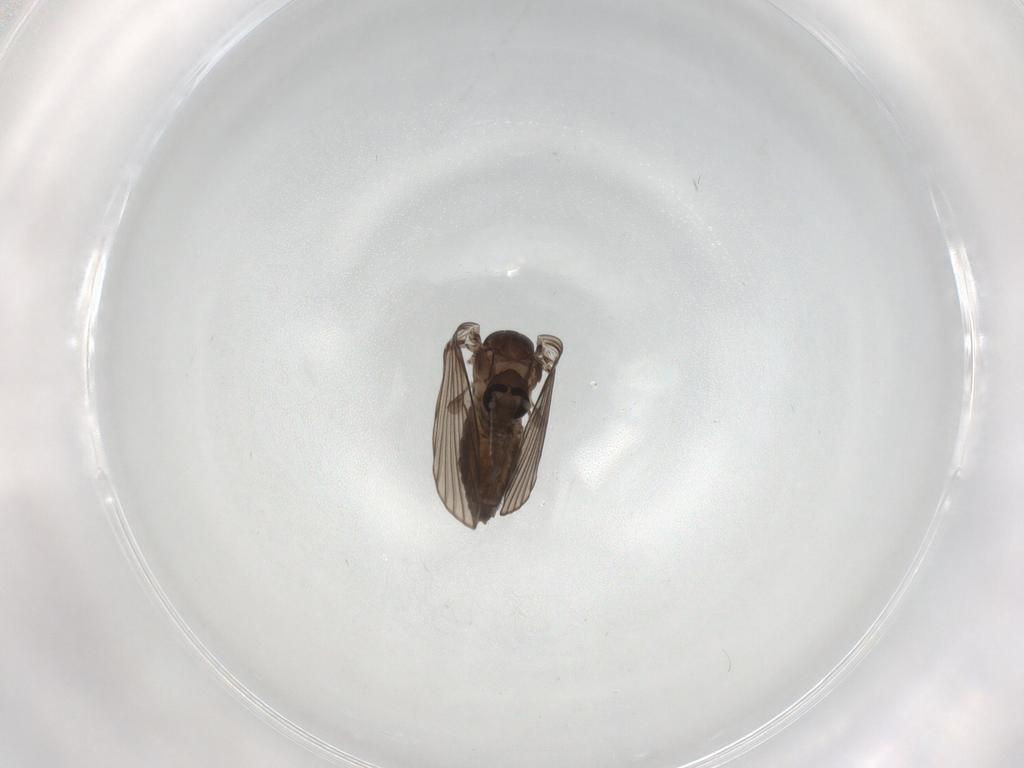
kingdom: Animalia
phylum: Arthropoda
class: Insecta
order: Diptera
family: Psychodidae
